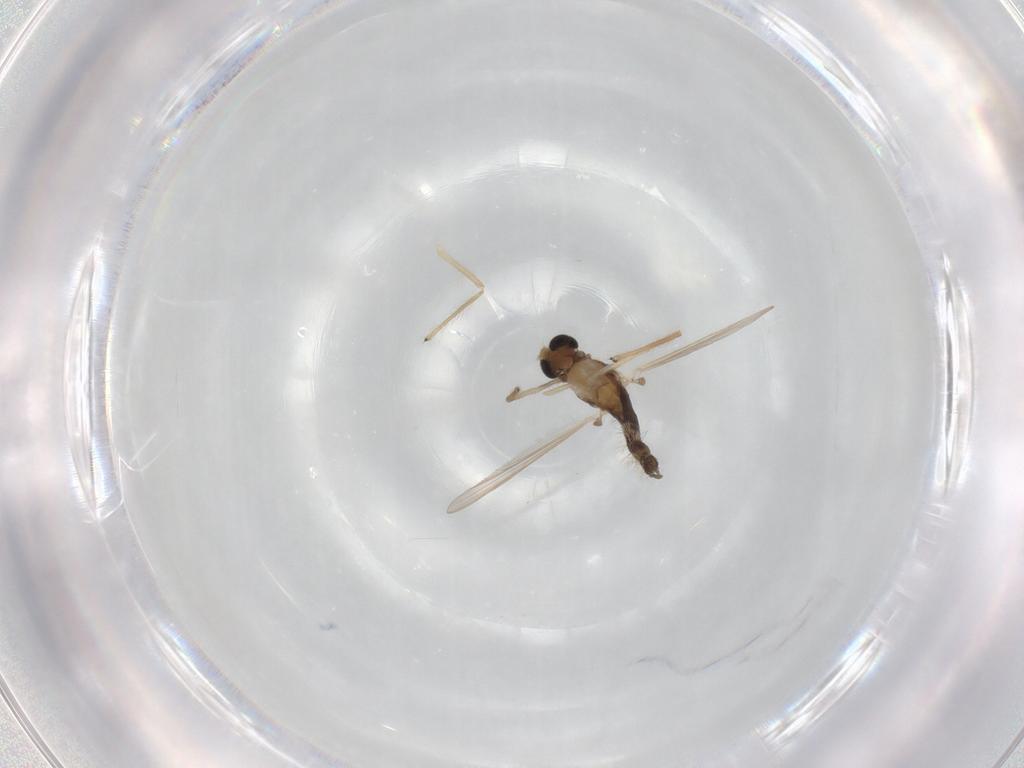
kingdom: Animalia
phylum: Arthropoda
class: Insecta
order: Diptera
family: Chironomidae
